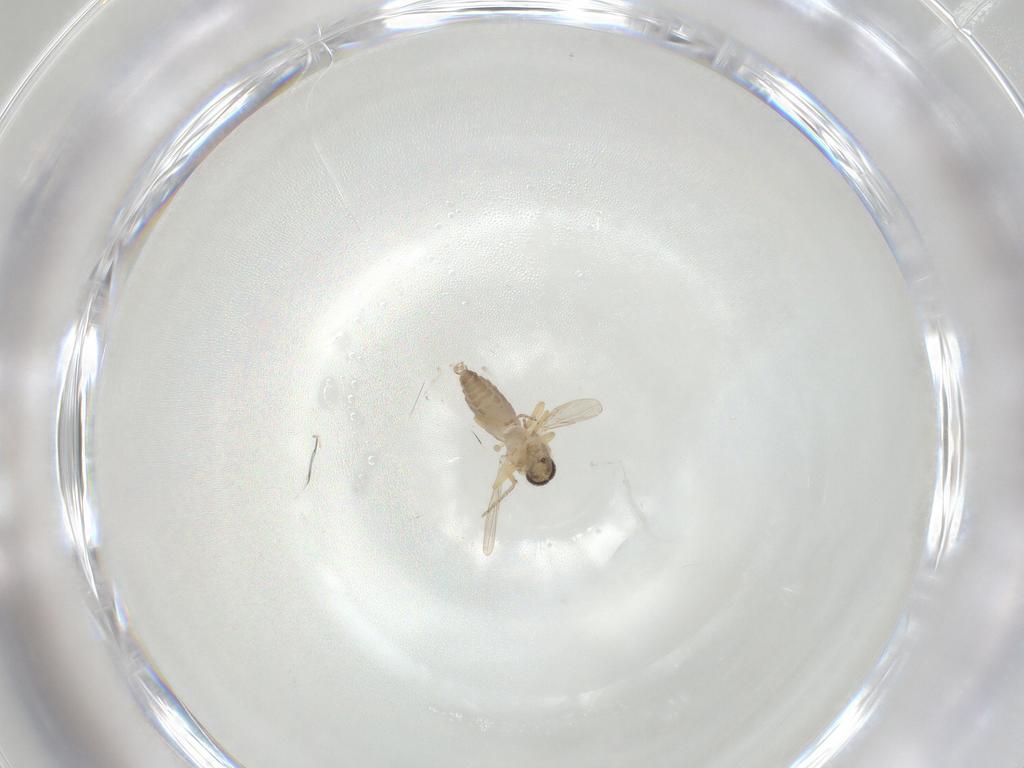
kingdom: Animalia
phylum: Arthropoda
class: Insecta
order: Diptera
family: Ceratopogonidae
